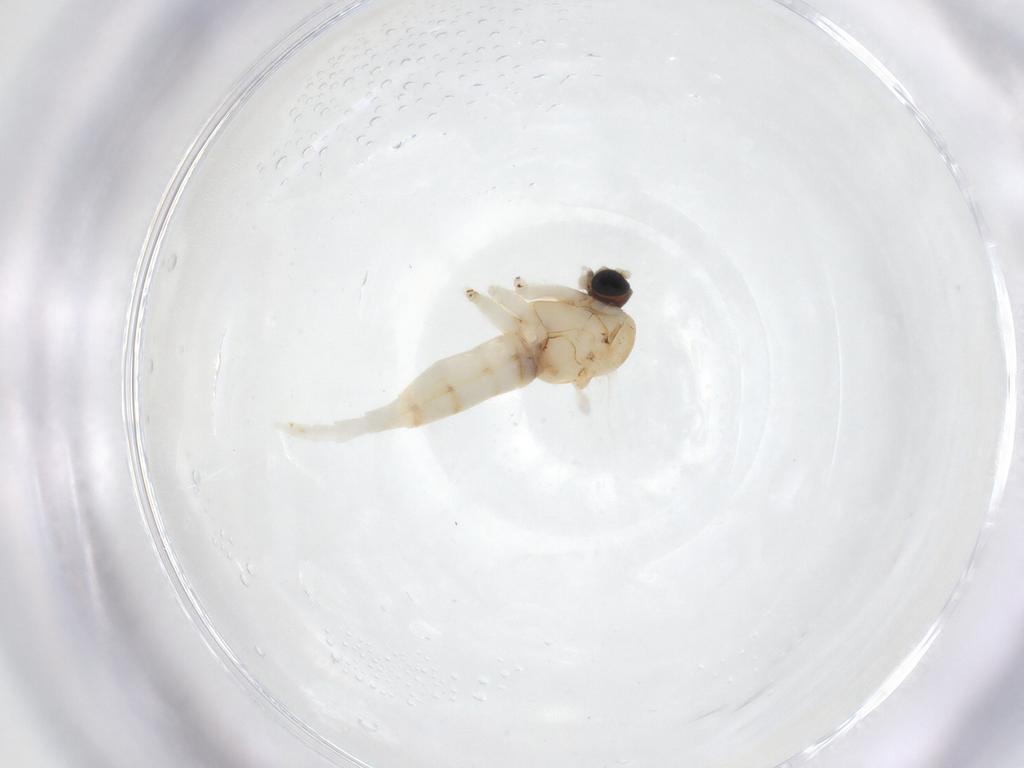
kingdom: Animalia
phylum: Arthropoda
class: Insecta
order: Diptera
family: Sciaridae
